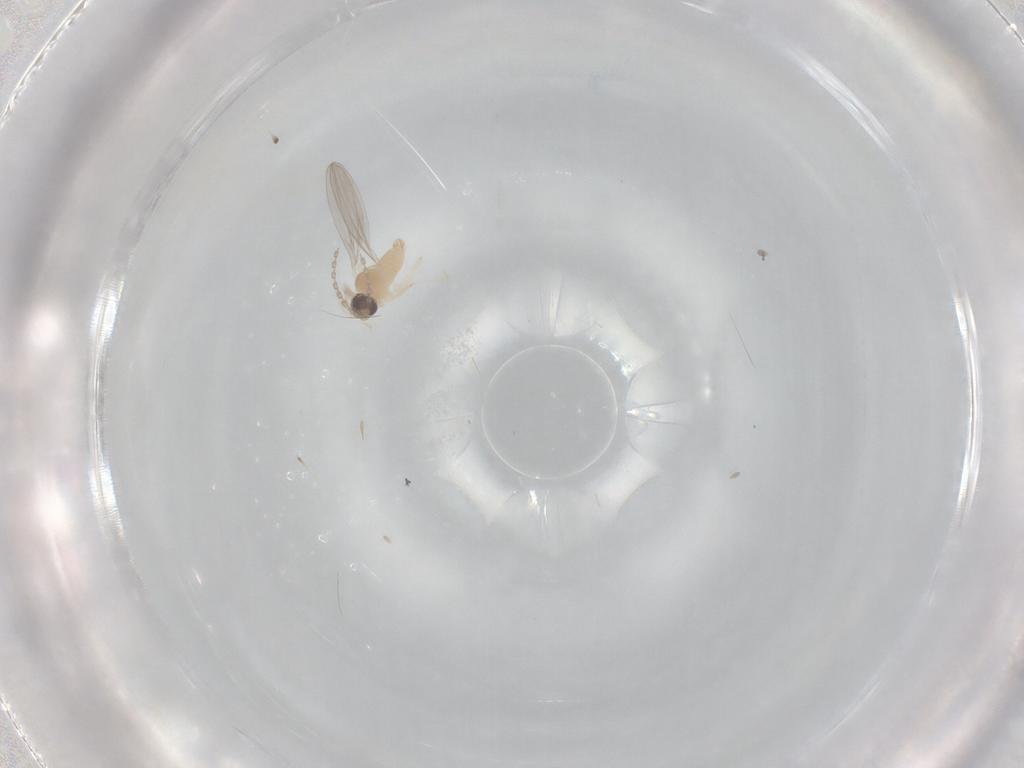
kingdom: Animalia
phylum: Arthropoda
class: Insecta
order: Diptera
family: Cecidomyiidae
